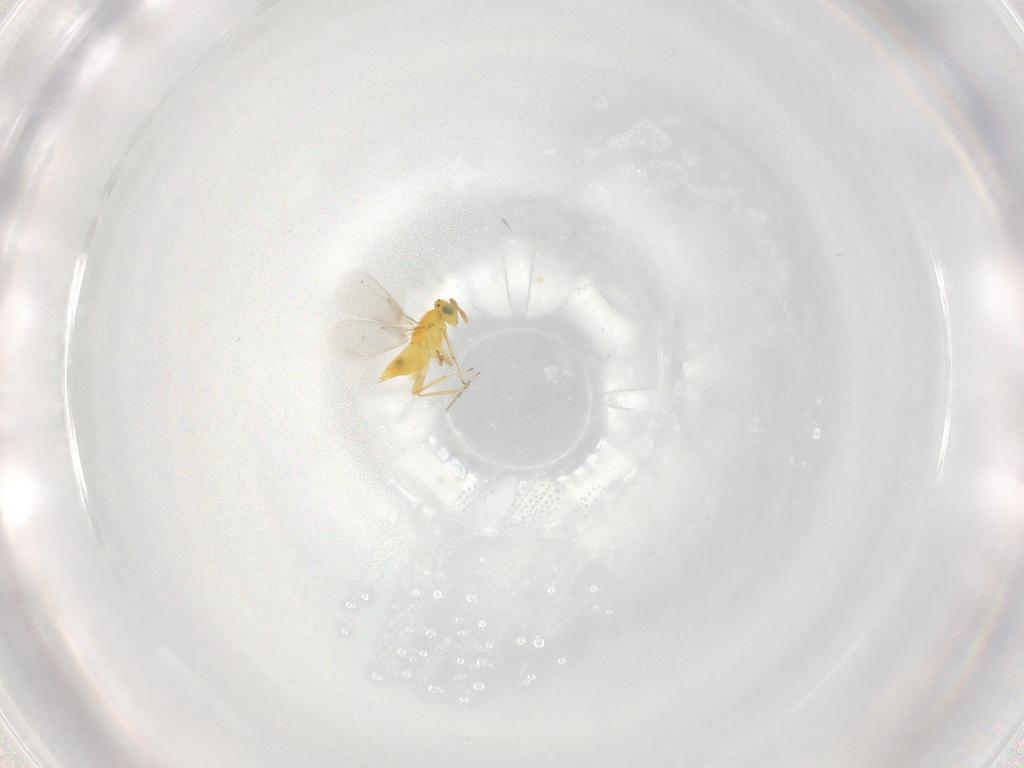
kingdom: Animalia
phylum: Arthropoda
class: Insecta
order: Hymenoptera
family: Aphelinidae
